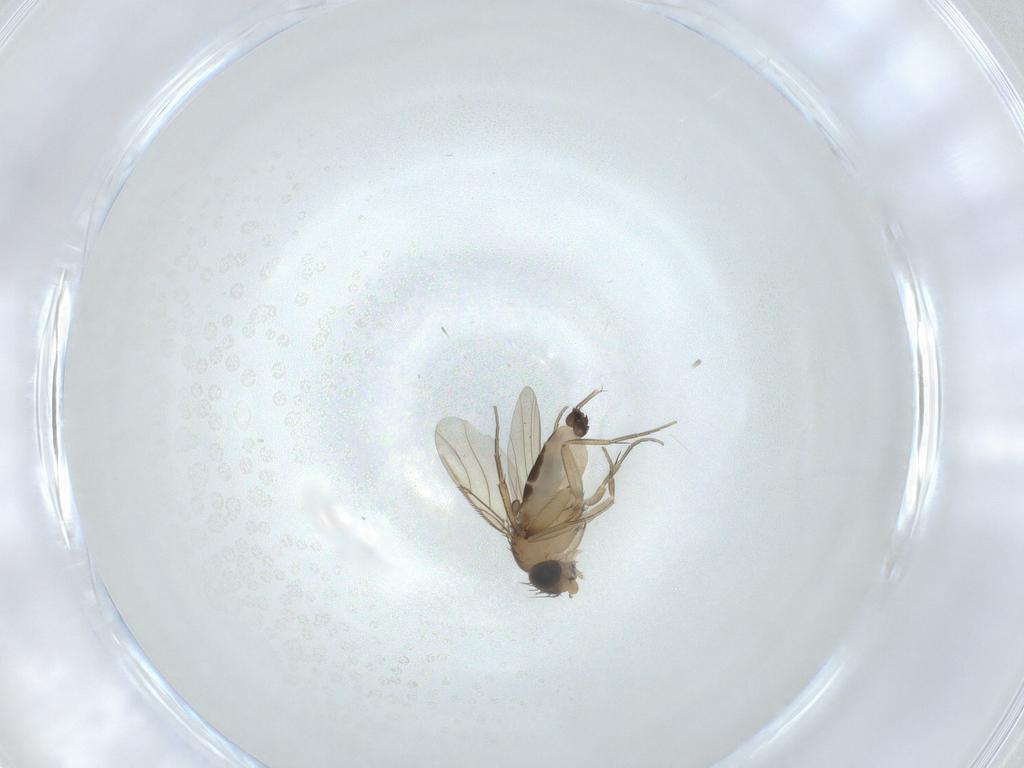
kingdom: Animalia
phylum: Arthropoda
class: Insecta
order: Diptera
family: Phoridae
